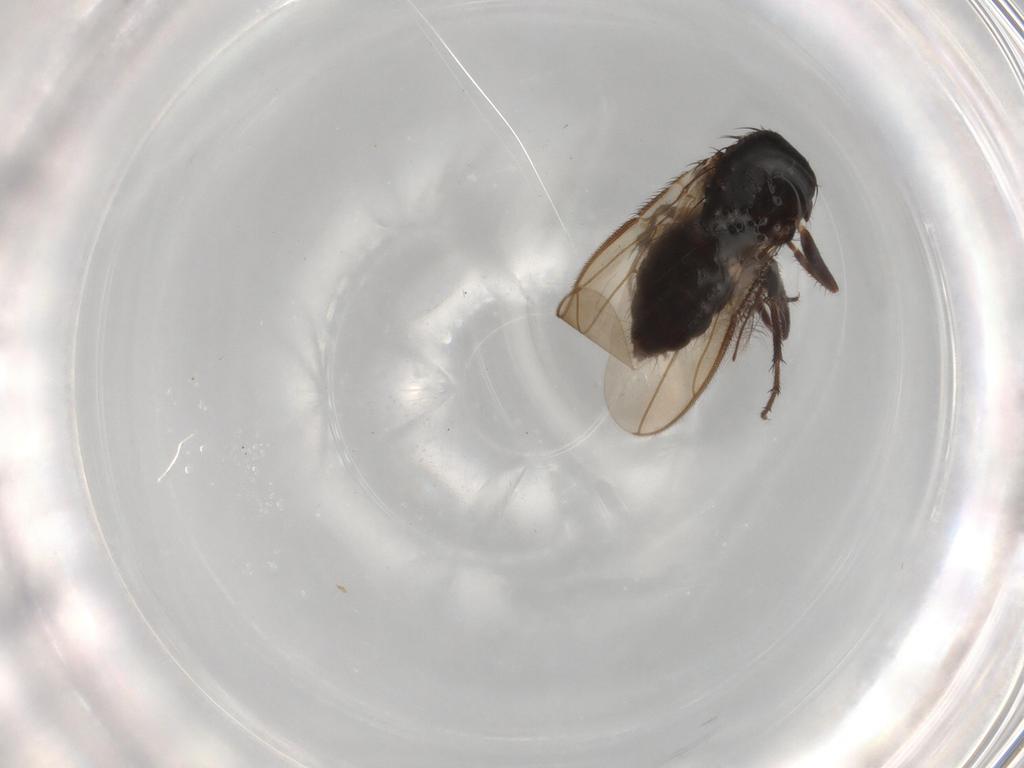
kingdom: Animalia
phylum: Arthropoda
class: Insecta
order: Diptera
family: Sphaeroceridae
